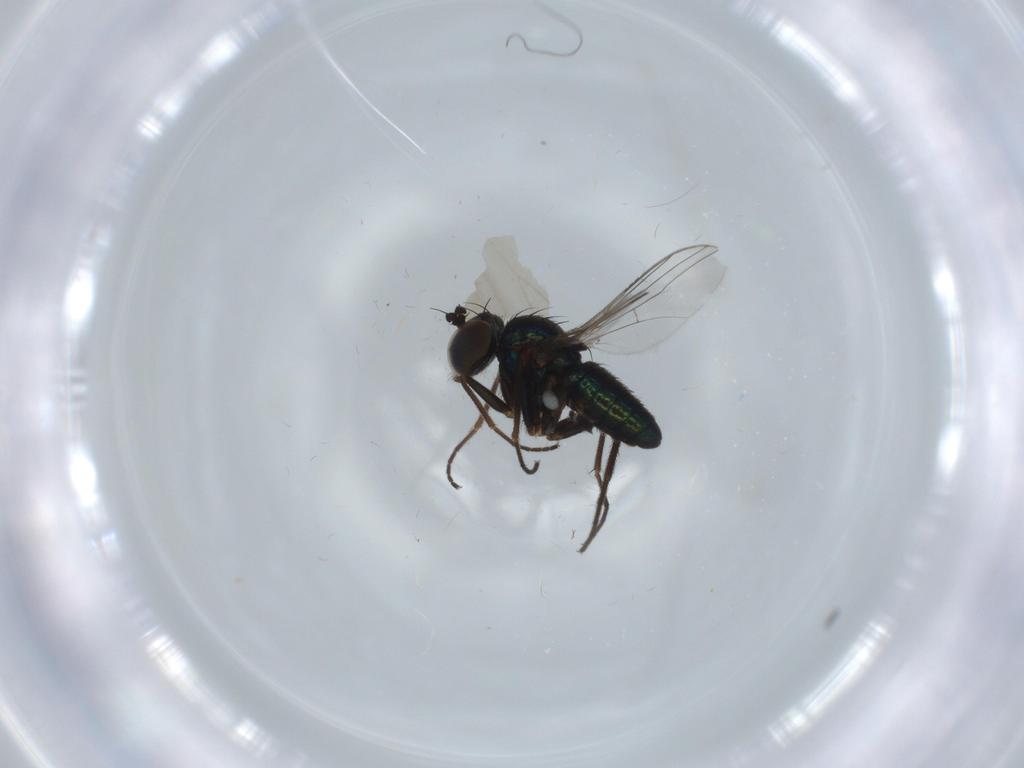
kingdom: Animalia
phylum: Arthropoda
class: Insecta
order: Diptera
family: Dolichopodidae
